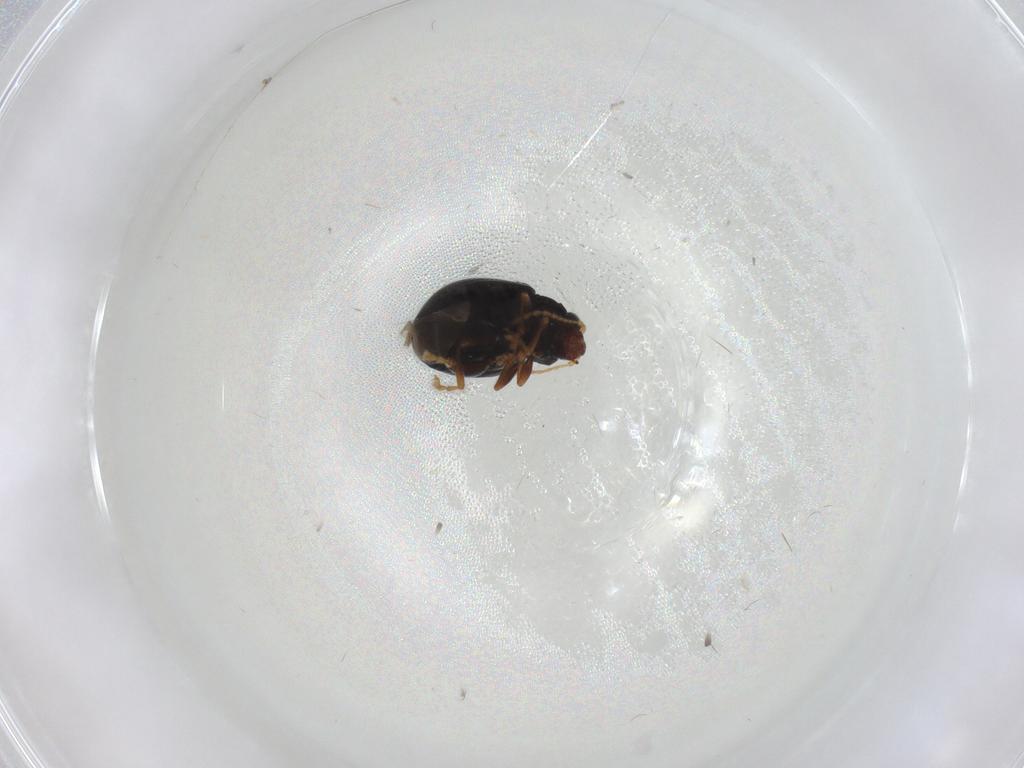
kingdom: Animalia
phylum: Arthropoda
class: Insecta
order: Coleoptera
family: Chrysomelidae
